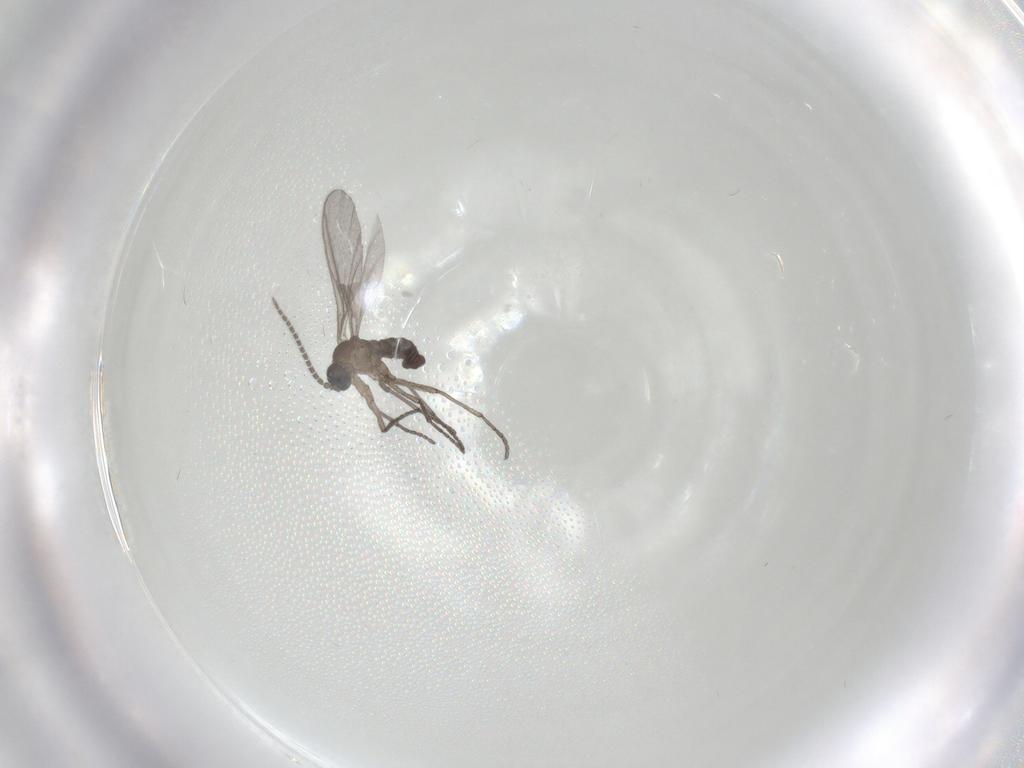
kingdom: Animalia
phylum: Arthropoda
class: Insecta
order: Diptera
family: Sciaridae
